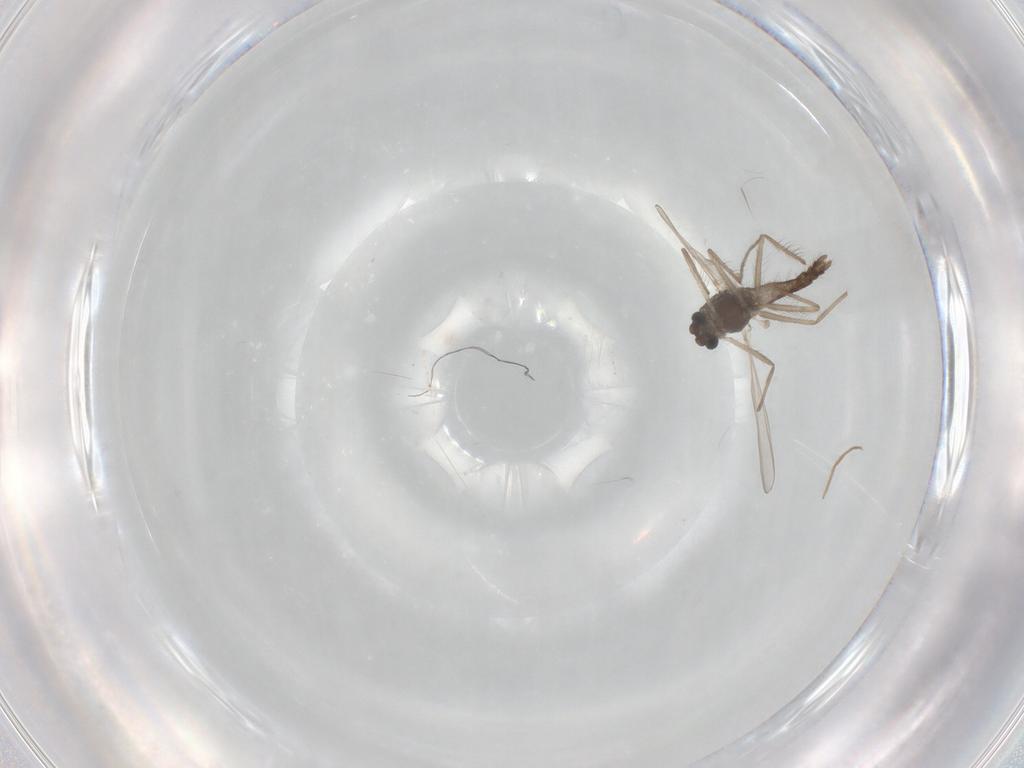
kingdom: Animalia
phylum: Arthropoda
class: Insecta
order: Diptera
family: Chironomidae
